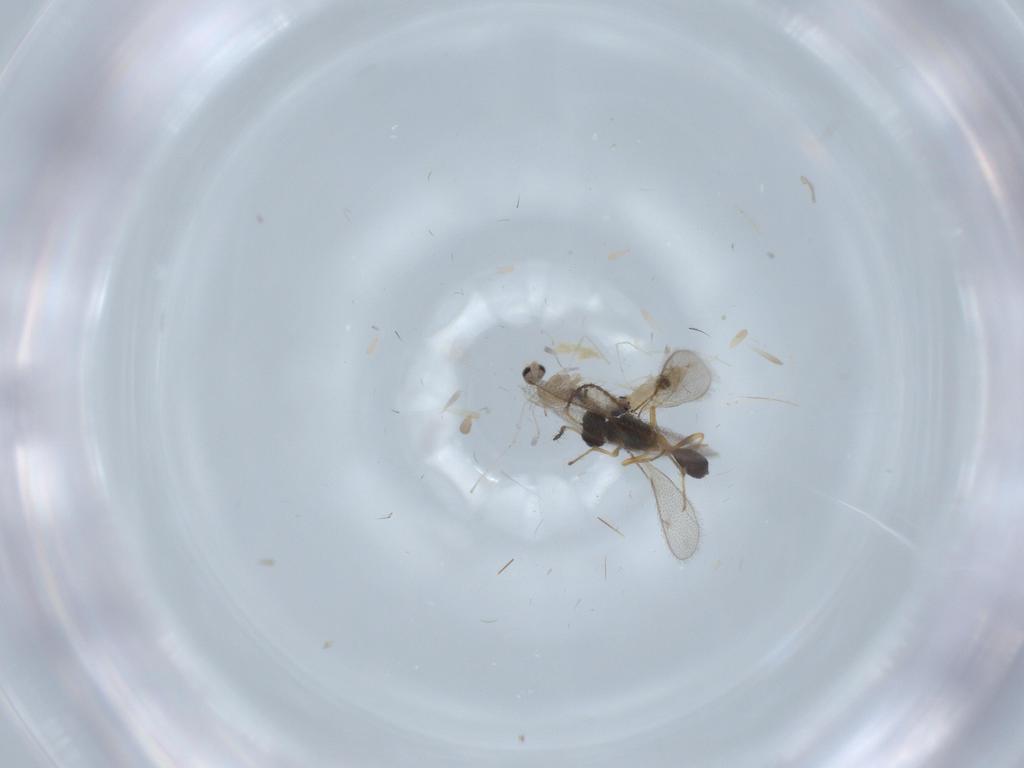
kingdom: Animalia
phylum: Arthropoda
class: Insecta
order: Diptera
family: Cecidomyiidae
